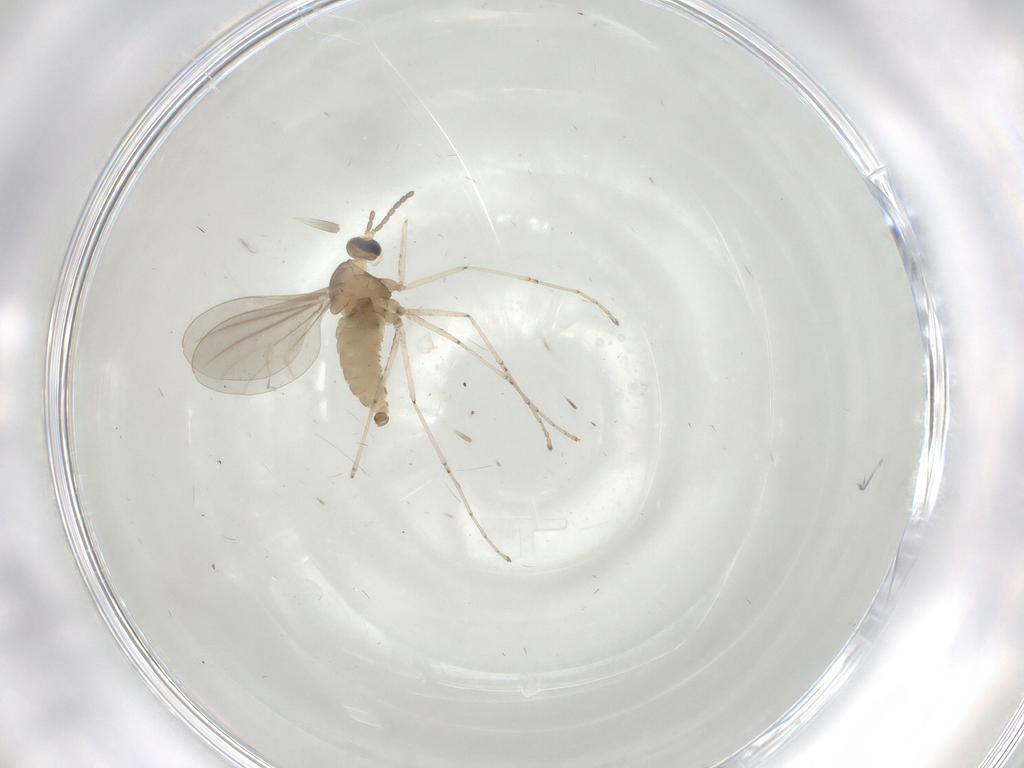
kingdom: Animalia
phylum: Arthropoda
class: Insecta
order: Diptera
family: Cecidomyiidae
